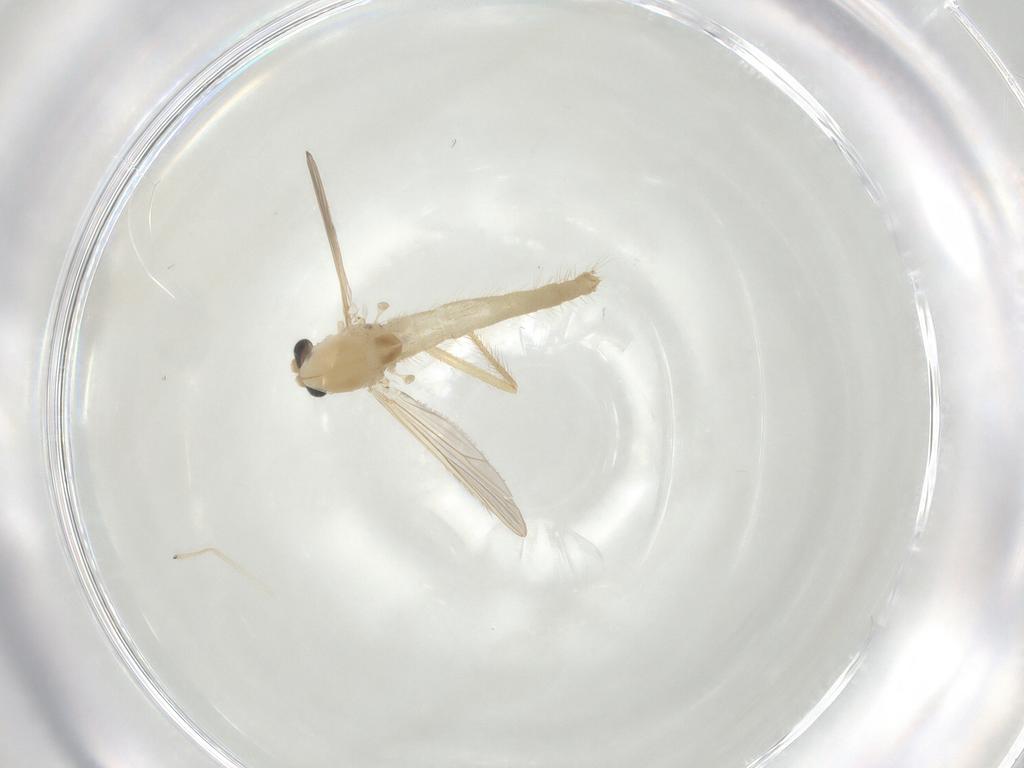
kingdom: Animalia
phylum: Arthropoda
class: Insecta
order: Diptera
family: Chironomidae
